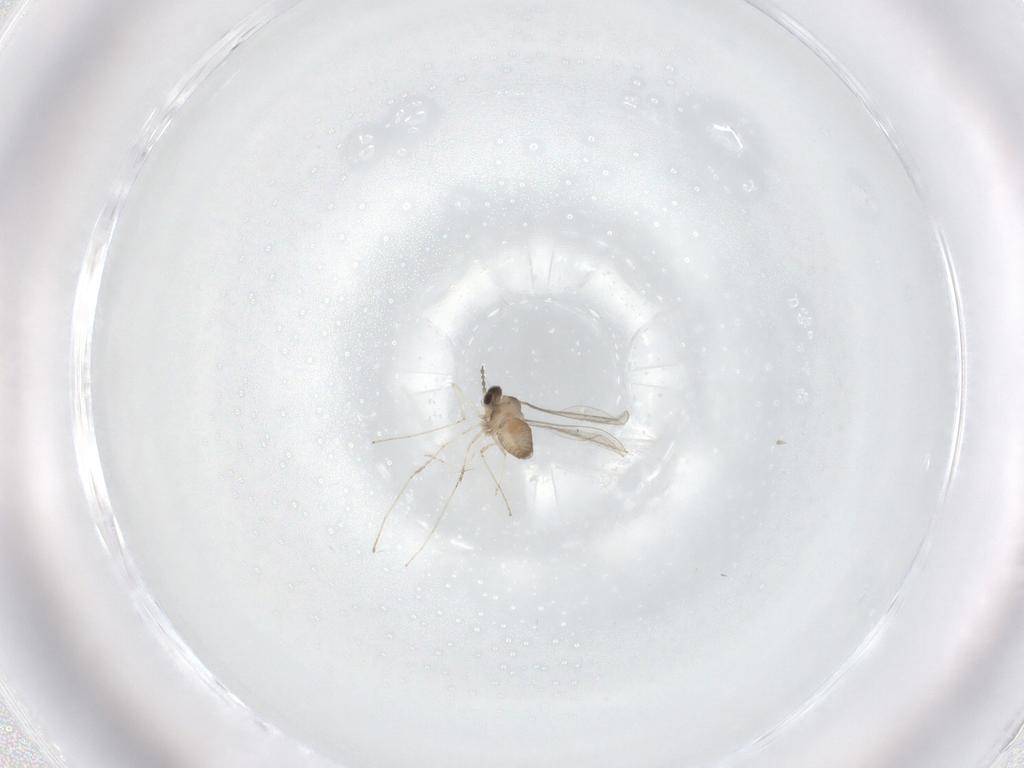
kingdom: Animalia
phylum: Arthropoda
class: Insecta
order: Diptera
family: Cecidomyiidae
